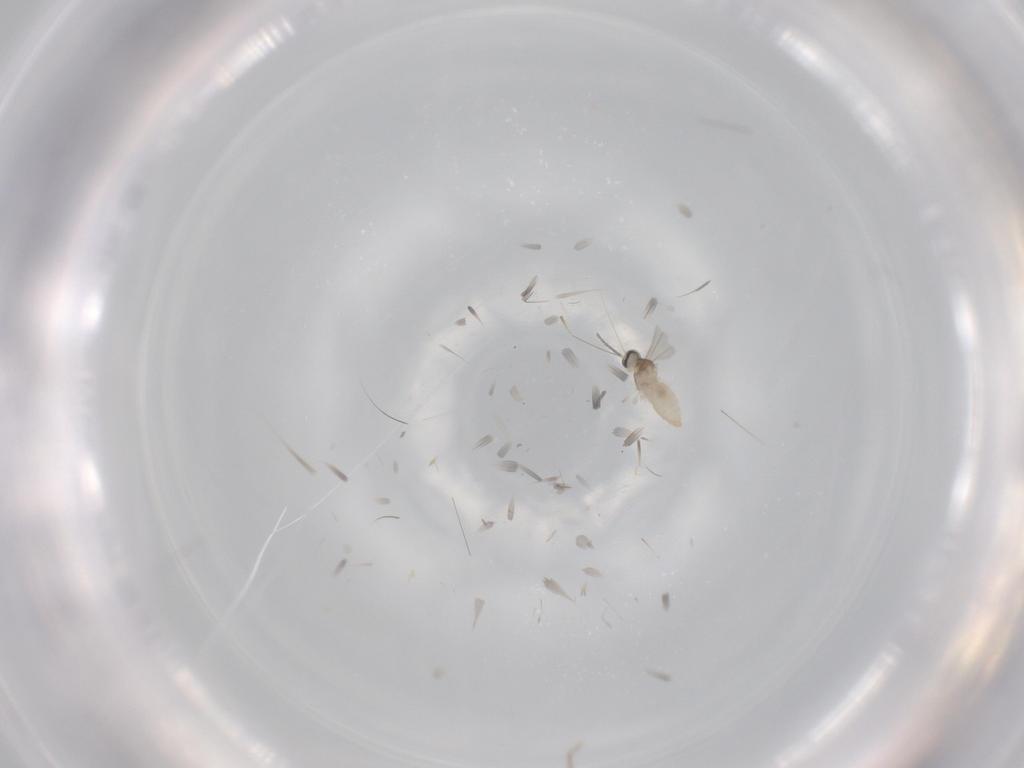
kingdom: Animalia
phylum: Arthropoda
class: Insecta
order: Diptera
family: Cecidomyiidae
